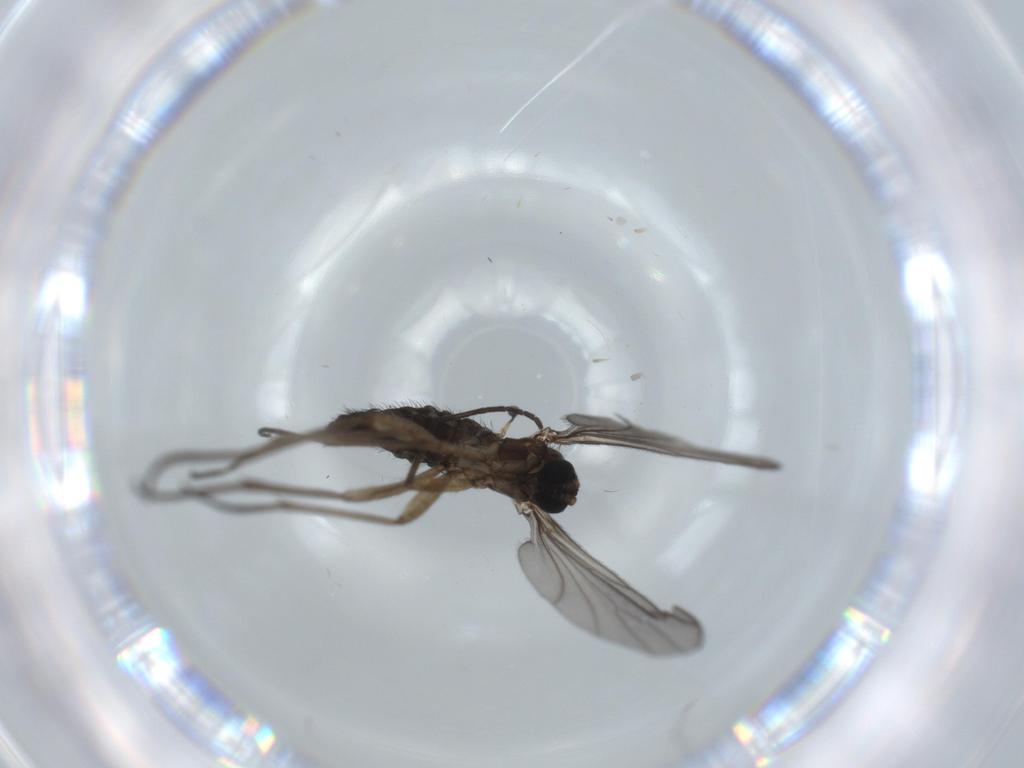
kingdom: Animalia
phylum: Arthropoda
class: Insecta
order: Diptera
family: Sciaridae
